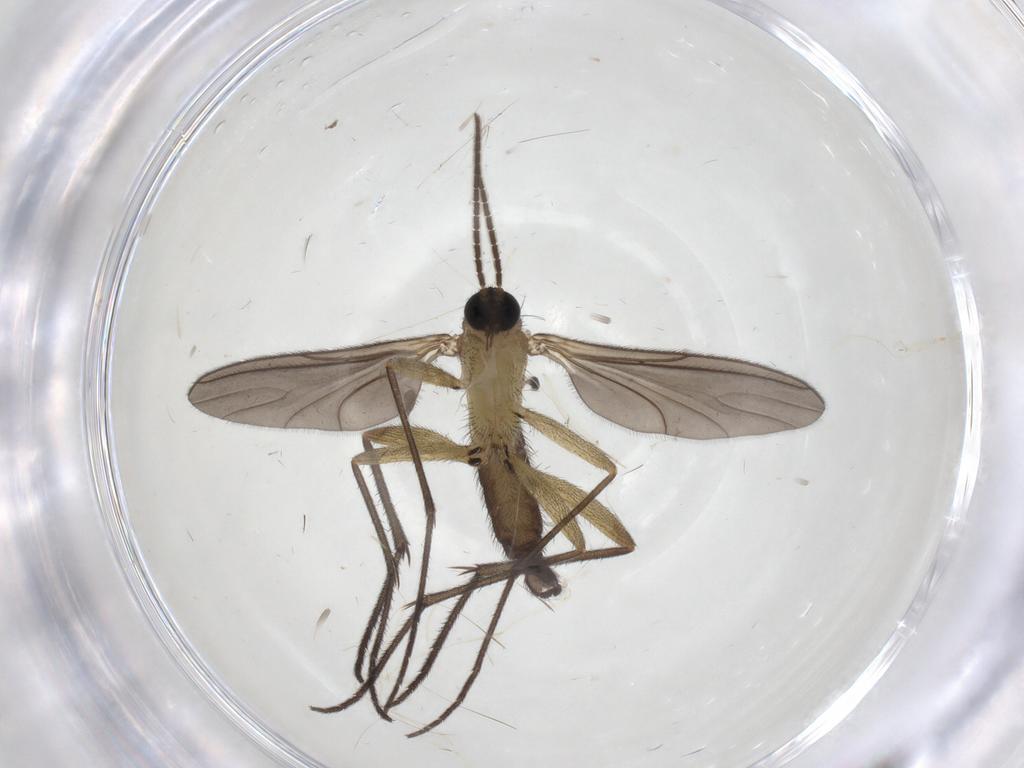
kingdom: Animalia
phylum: Arthropoda
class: Insecta
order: Diptera
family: Sciaridae
